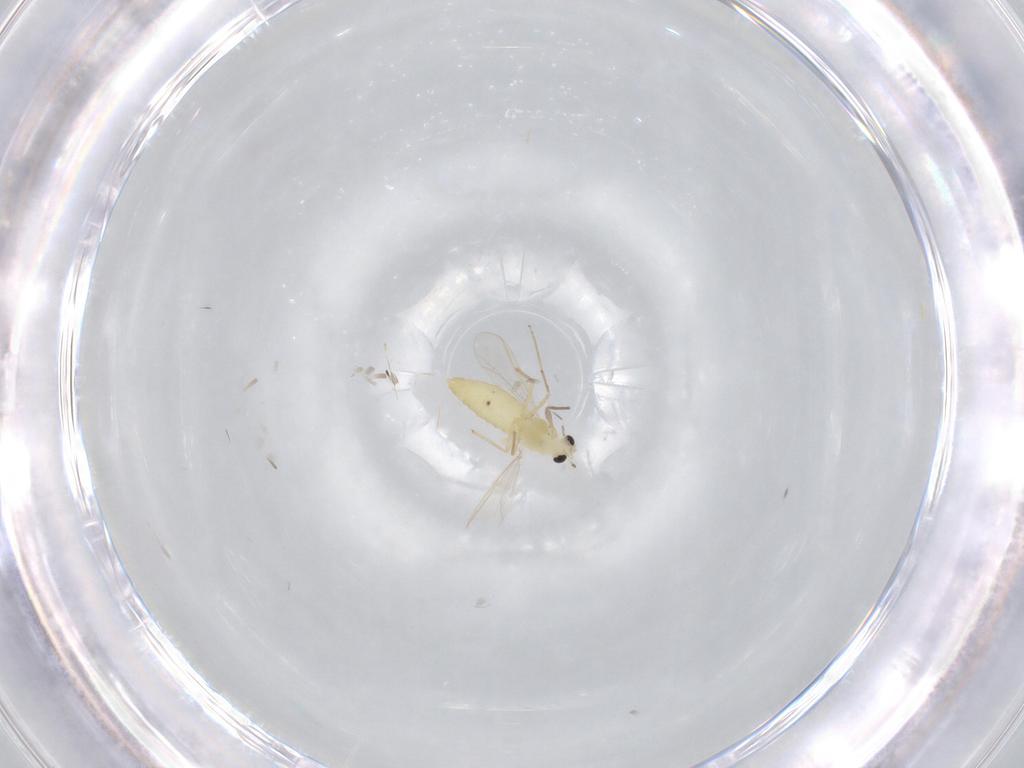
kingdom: Animalia
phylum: Arthropoda
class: Insecta
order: Diptera
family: Chironomidae
